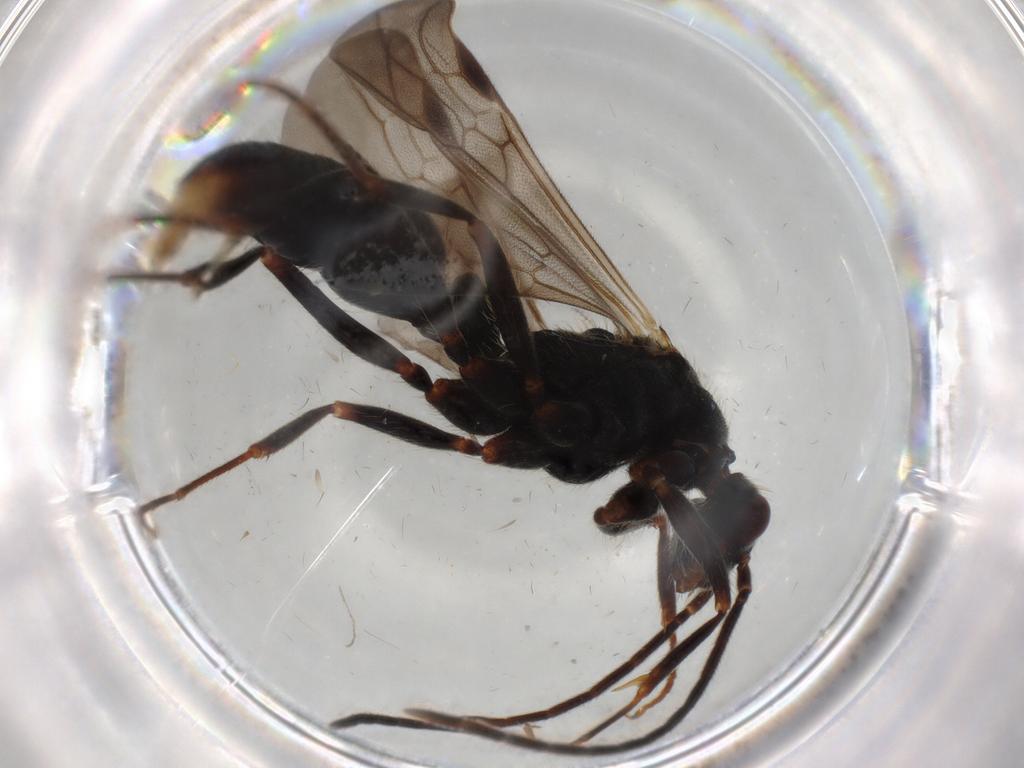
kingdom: Animalia
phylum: Arthropoda
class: Insecta
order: Hymenoptera
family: Formicidae
